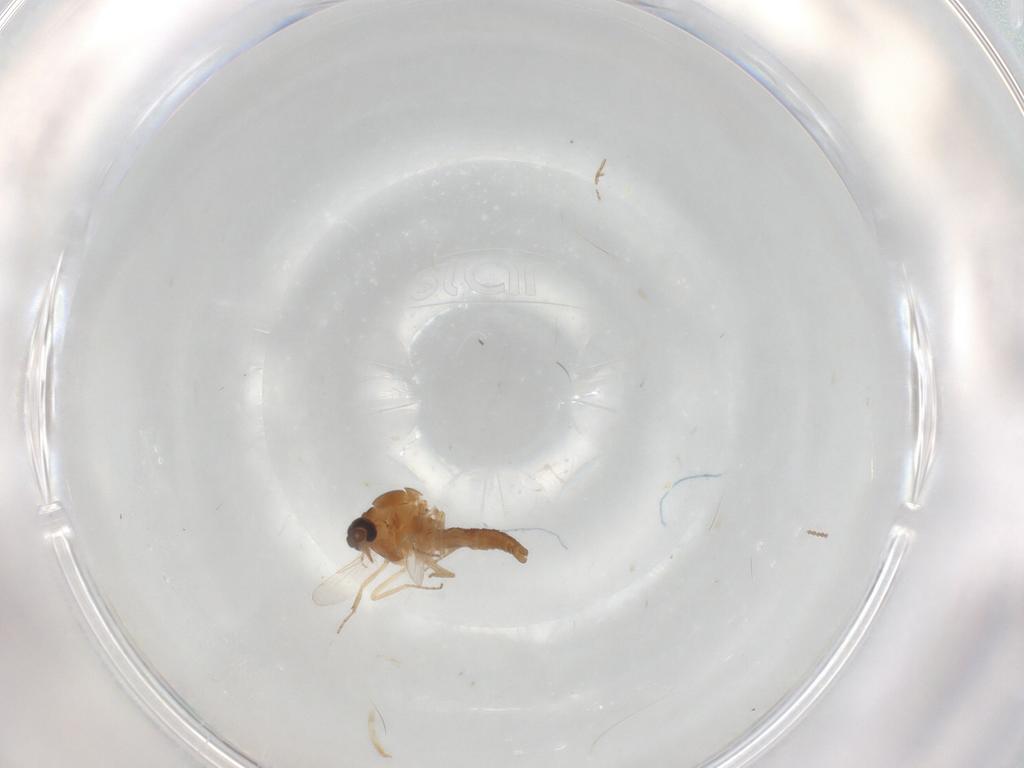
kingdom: Animalia
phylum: Arthropoda
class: Insecta
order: Diptera
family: Ceratopogonidae
